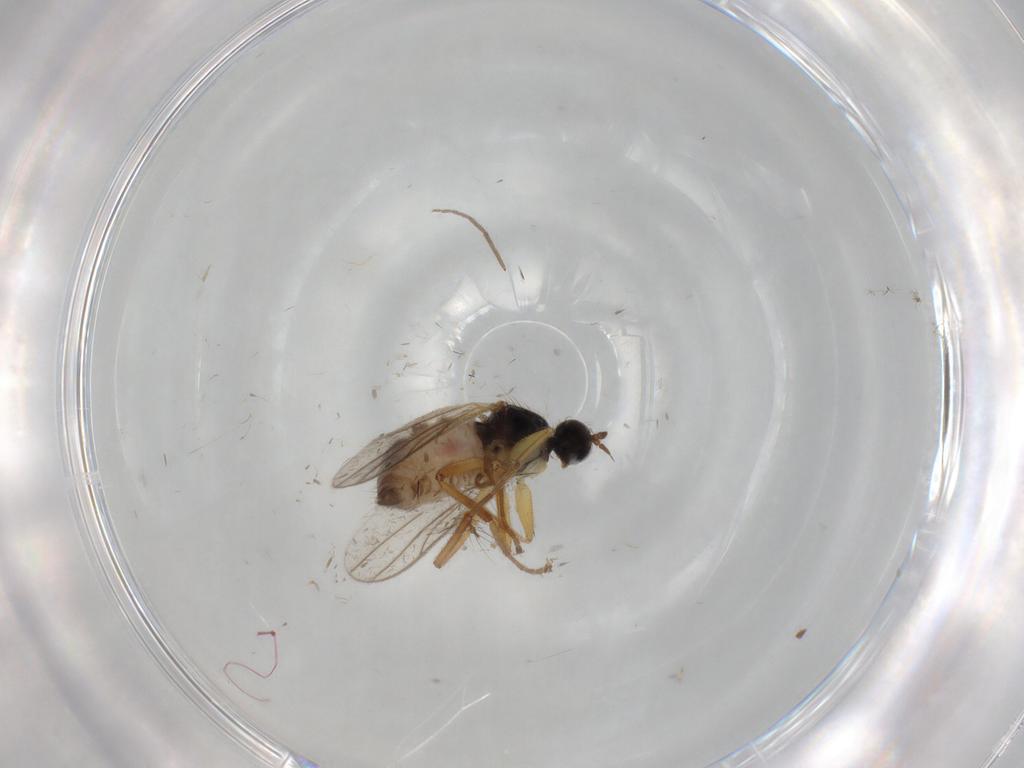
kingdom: Animalia
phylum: Arthropoda
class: Insecta
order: Diptera
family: Hybotidae
